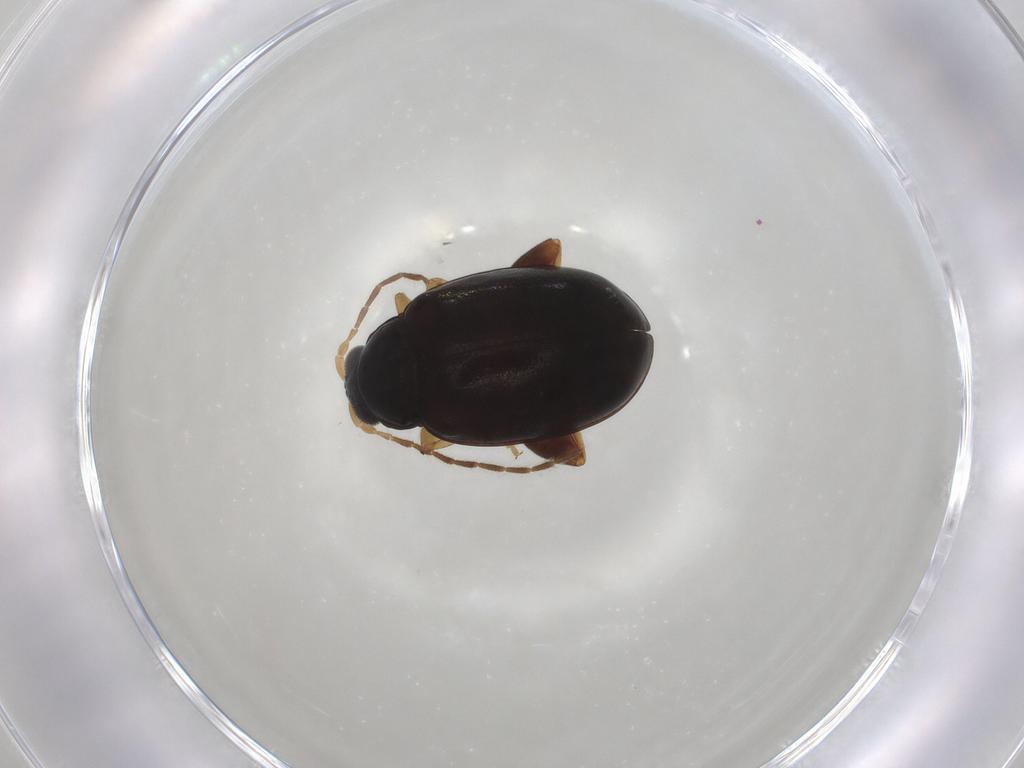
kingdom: Animalia
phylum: Arthropoda
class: Insecta
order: Coleoptera
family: Chrysomelidae
